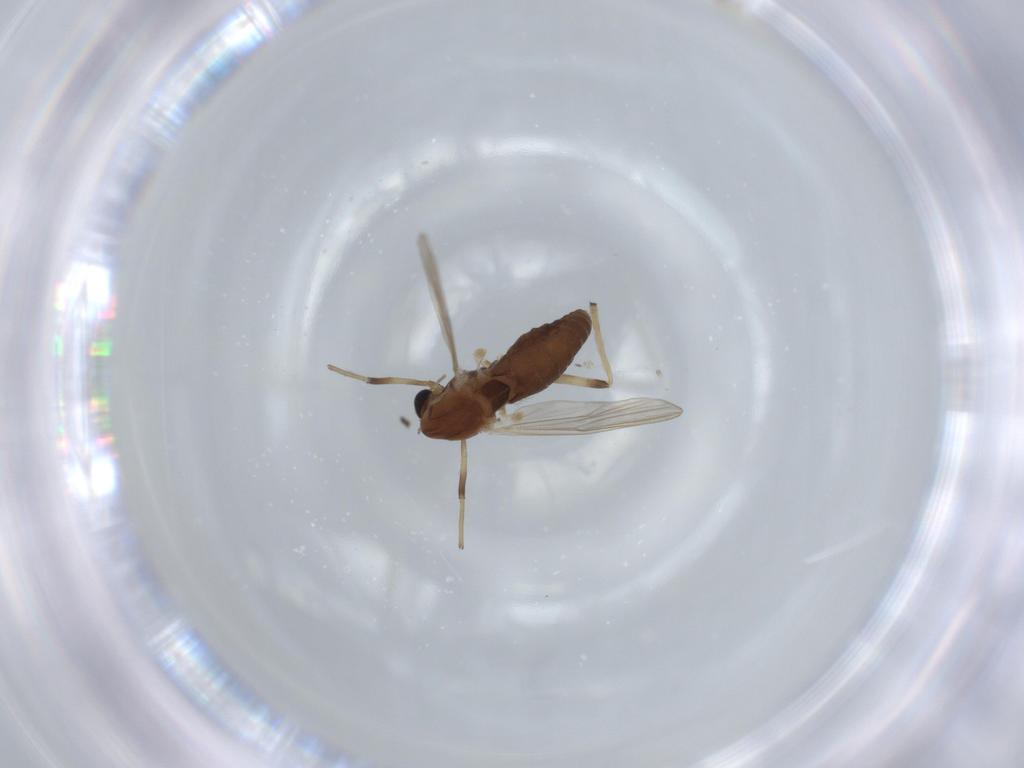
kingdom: Animalia
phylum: Arthropoda
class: Insecta
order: Diptera
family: Chironomidae
